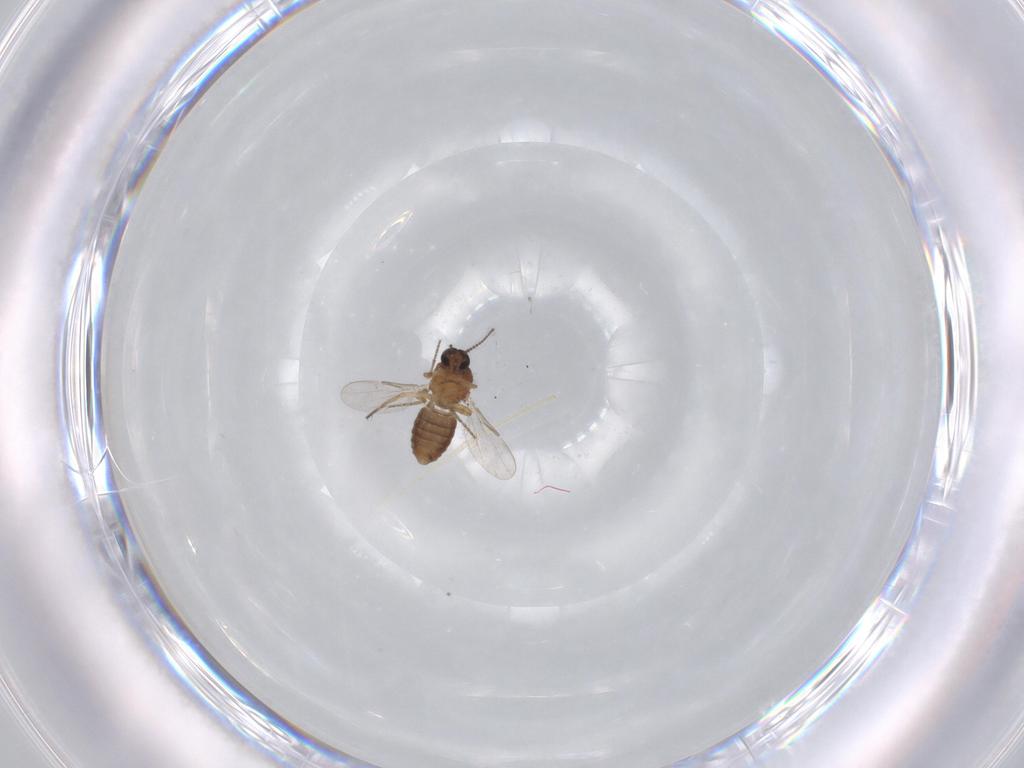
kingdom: Animalia
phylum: Arthropoda
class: Insecta
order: Diptera
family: Ceratopogonidae
